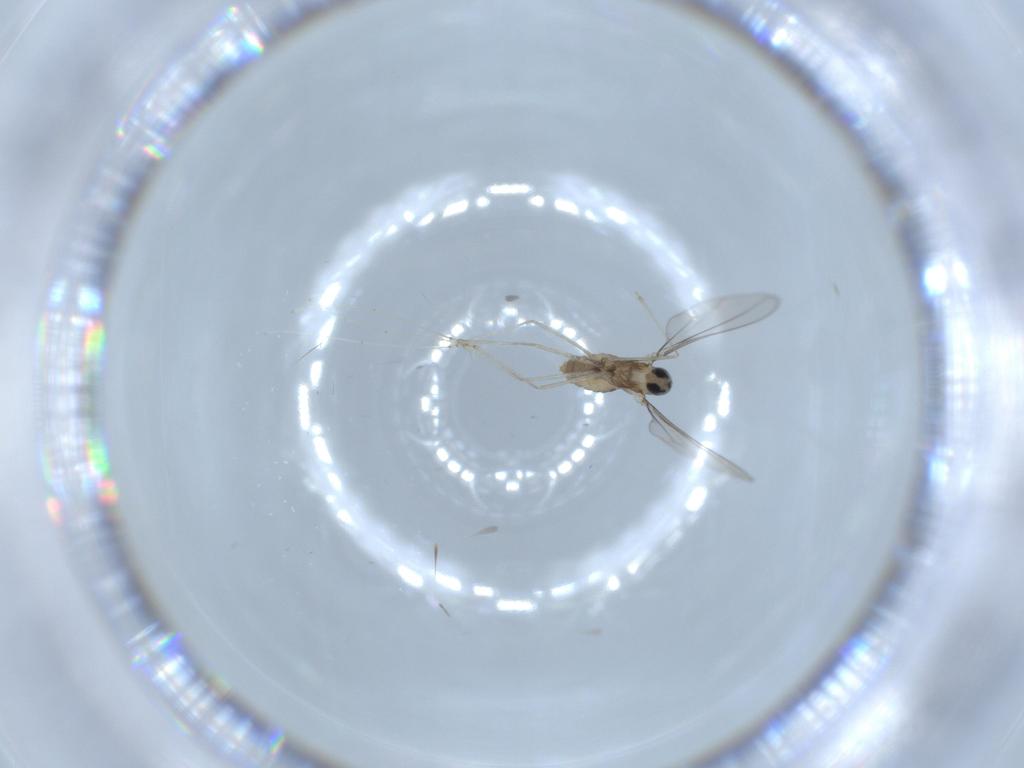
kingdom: Animalia
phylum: Arthropoda
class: Insecta
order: Diptera
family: Cecidomyiidae
